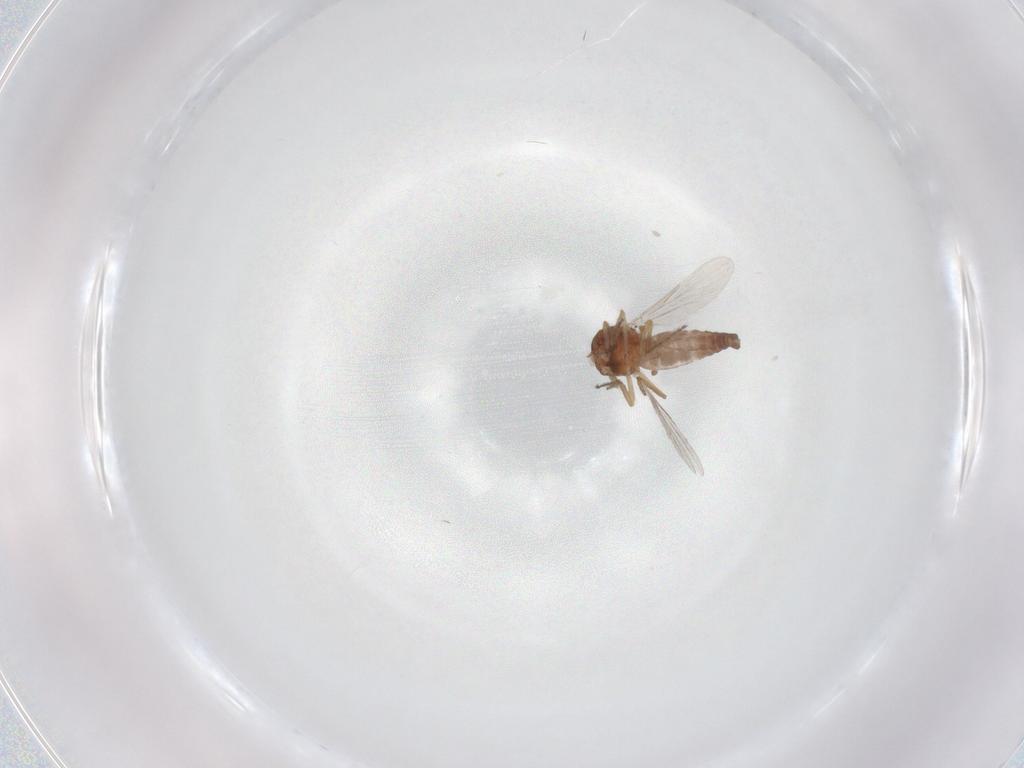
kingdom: Animalia
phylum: Arthropoda
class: Insecta
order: Diptera
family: Ceratopogonidae
